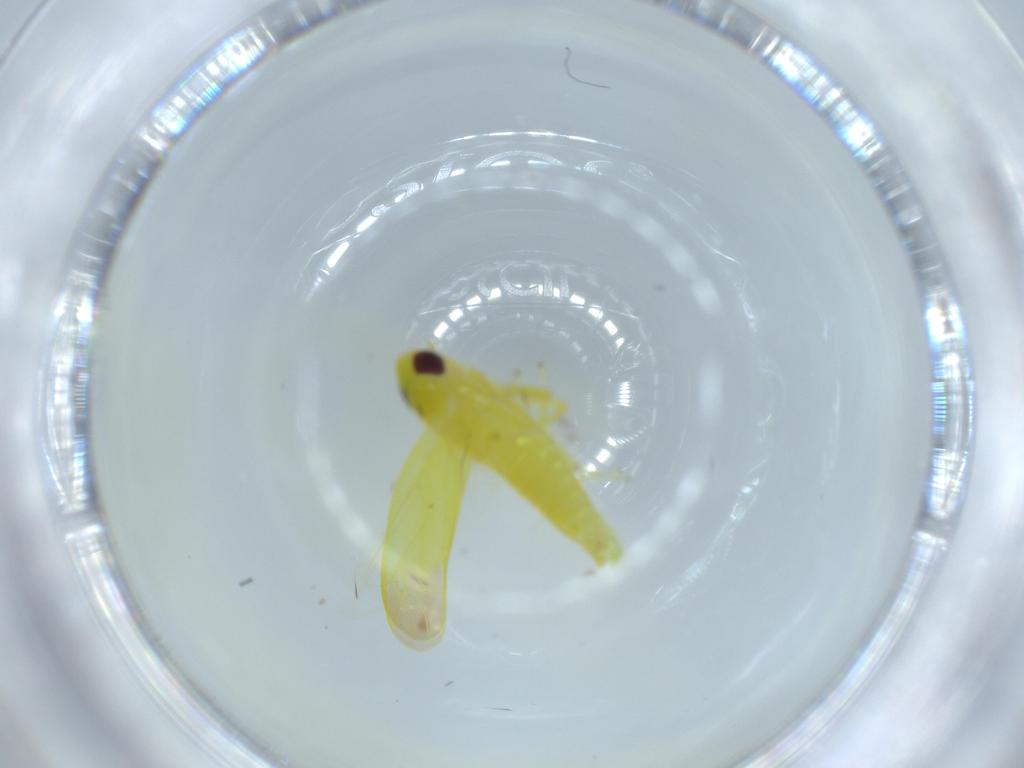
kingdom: Animalia
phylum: Arthropoda
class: Insecta
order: Hemiptera
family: Cicadellidae
